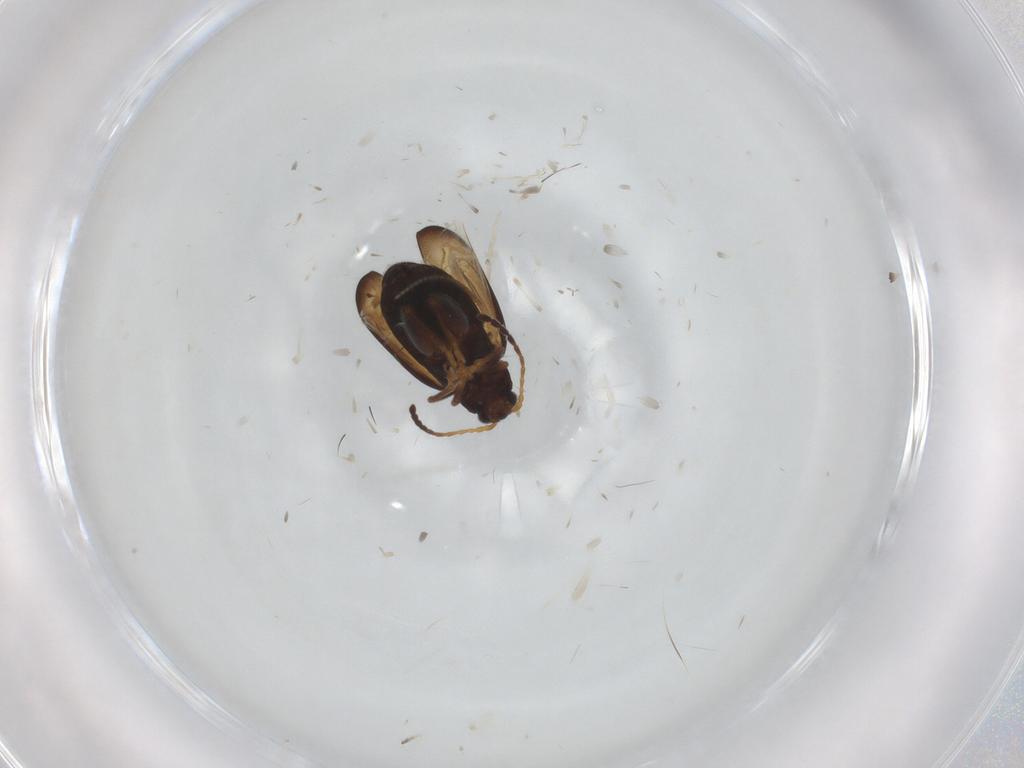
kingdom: Animalia
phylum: Arthropoda
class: Insecta
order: Coleoptera
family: Chrysomelidae
